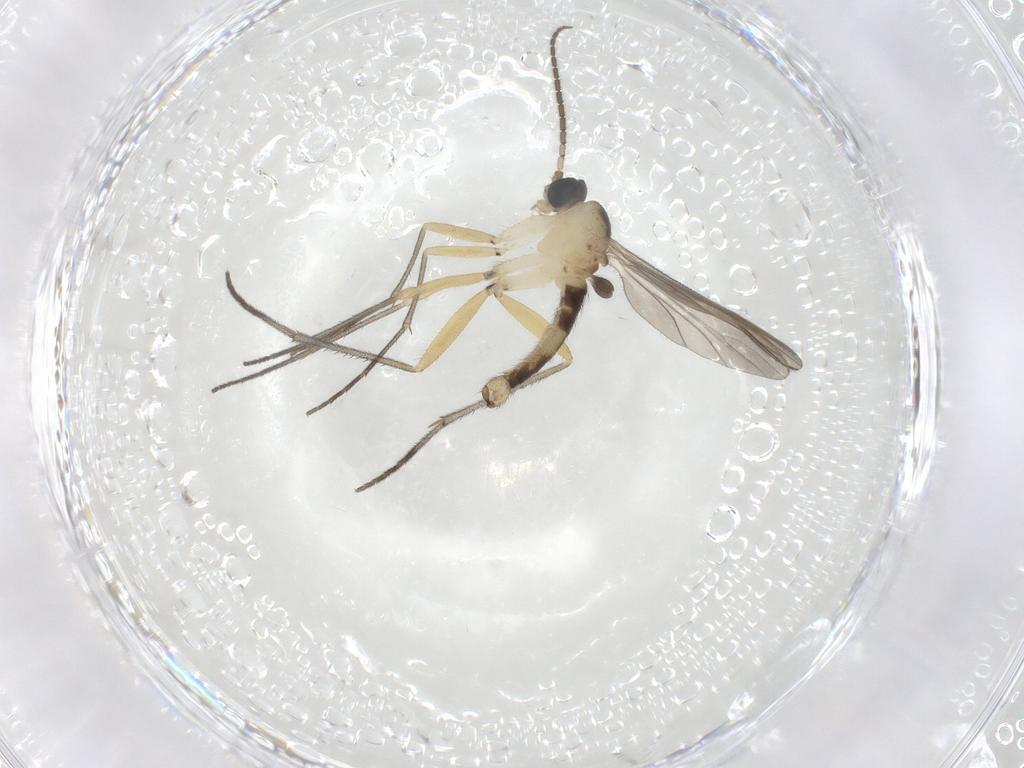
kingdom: Animalia
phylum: Arthropoda
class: Insecta
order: Diptera
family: Sciaridae
